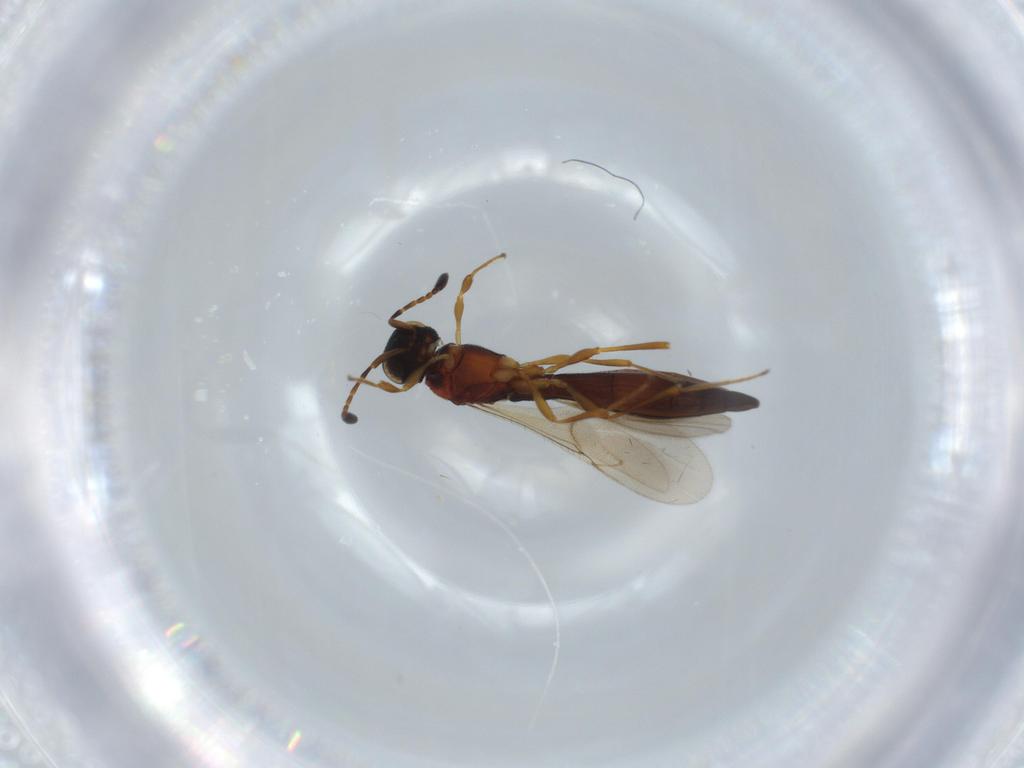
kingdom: Animalia
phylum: Arthropoda
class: Insecta
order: Hymenoptera
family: Scelionidae
